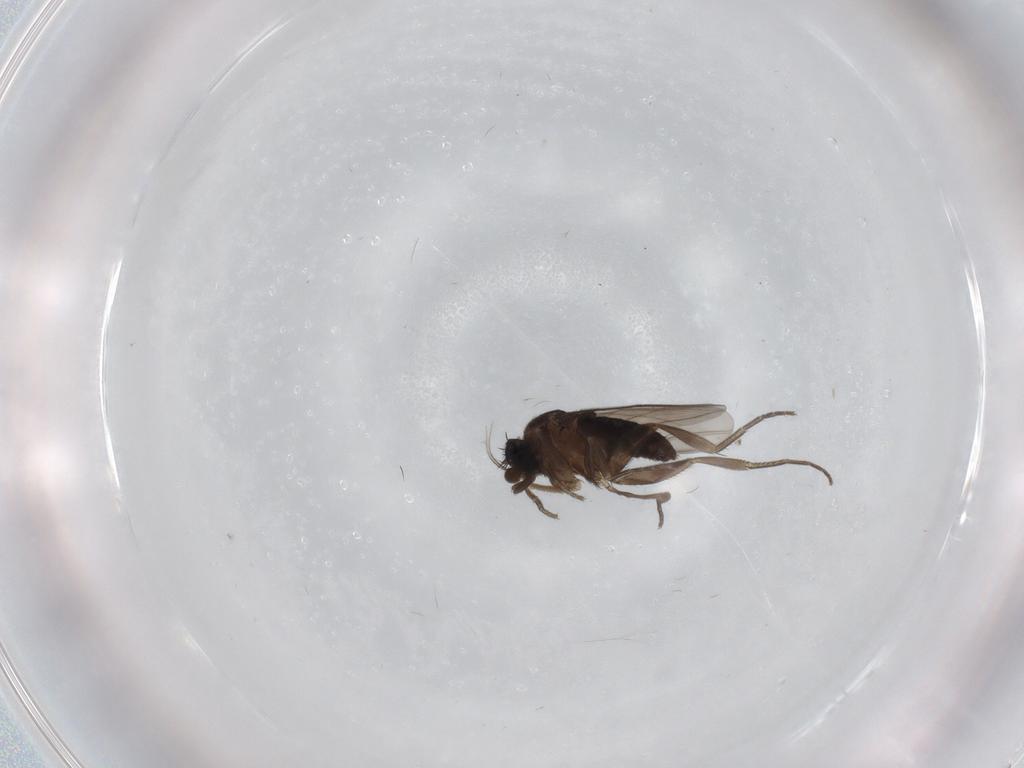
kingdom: Animalia
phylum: Arthropoda
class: Insecta
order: Diptera
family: Phoridae
